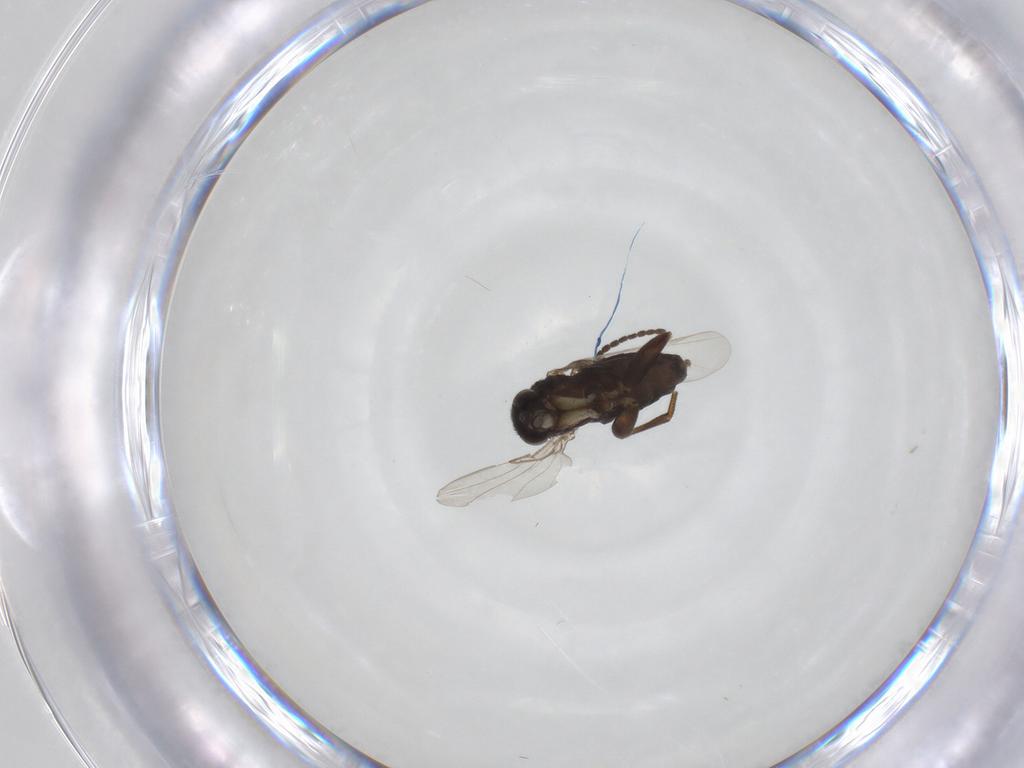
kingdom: Animalia
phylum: Arthropoda
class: Insecta
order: Diptera
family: Phoridae
